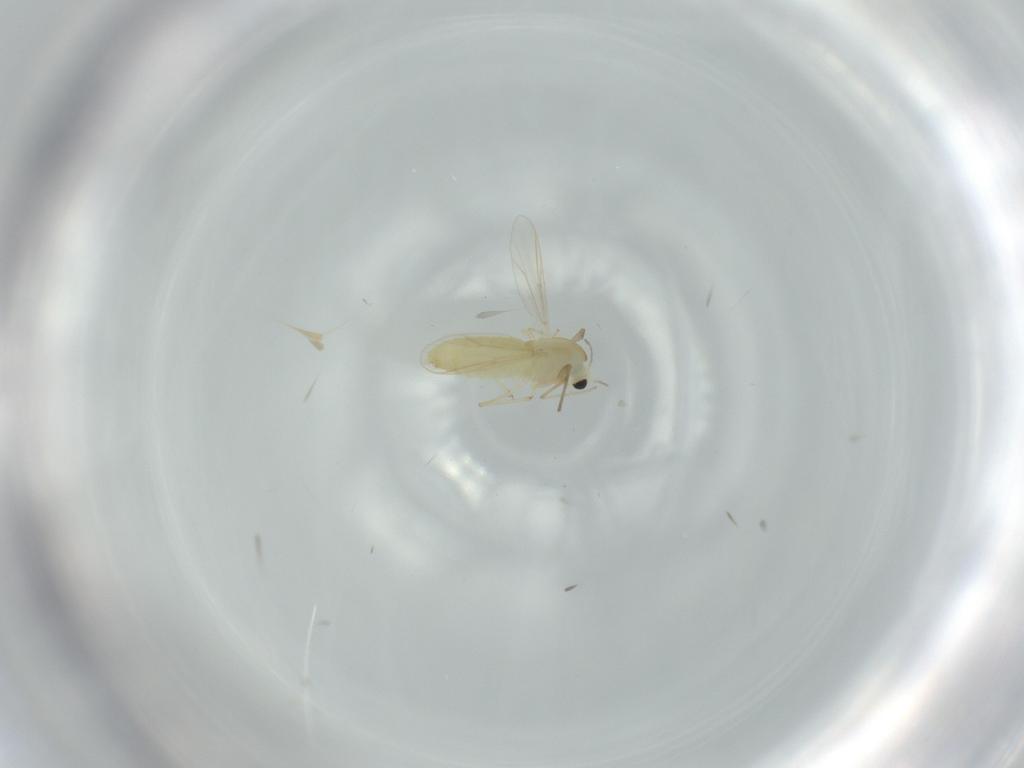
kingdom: Animalia
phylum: Arthropoda
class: Insecta
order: Diptera
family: Chironomidae
